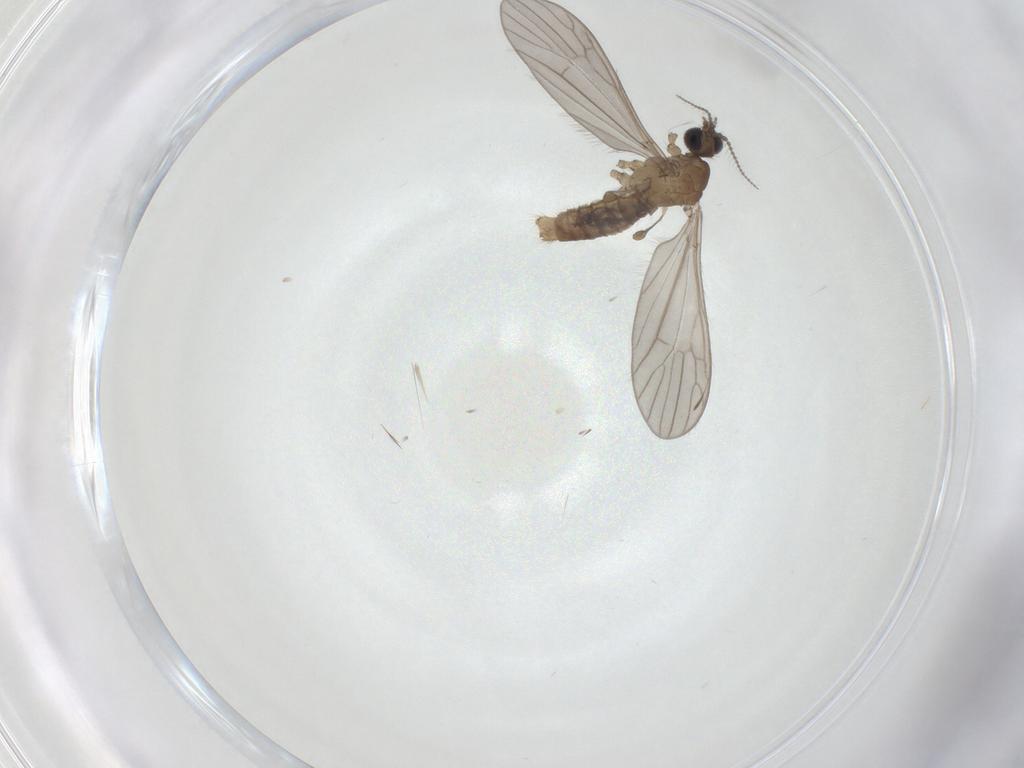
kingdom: Animalia
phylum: Arthropoda
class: Insecta
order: Diptera
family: Limoniidae
